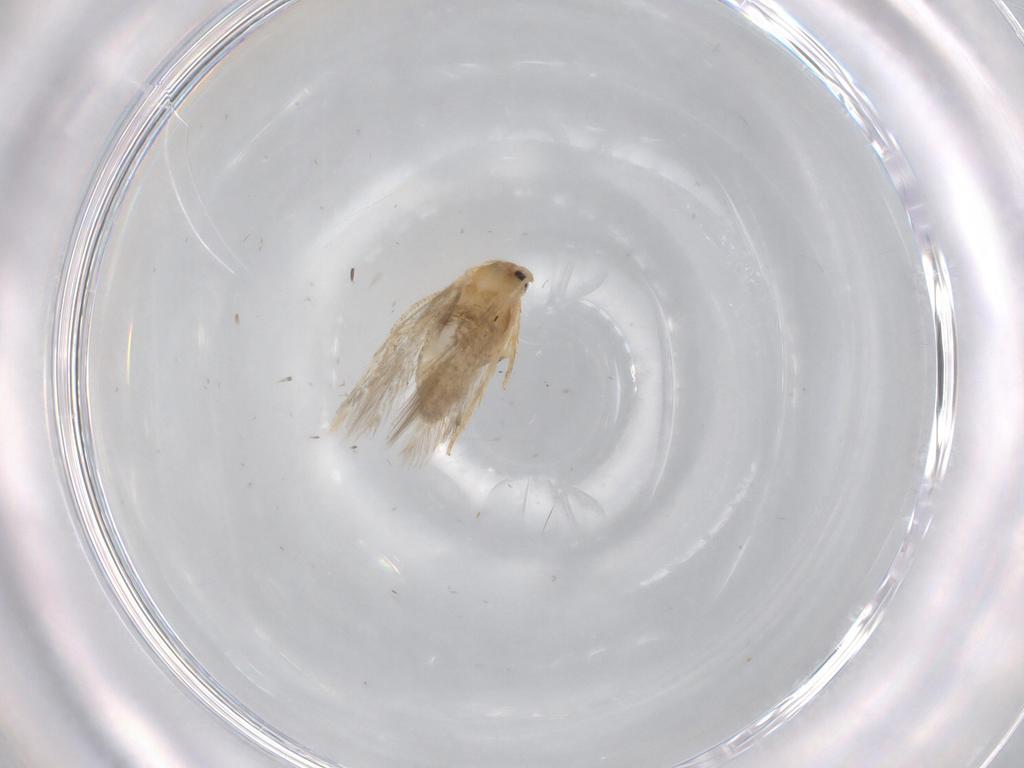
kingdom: Animalia
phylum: Arthropoda
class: Insecta
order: Lepidoptera
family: Nepticulidae
